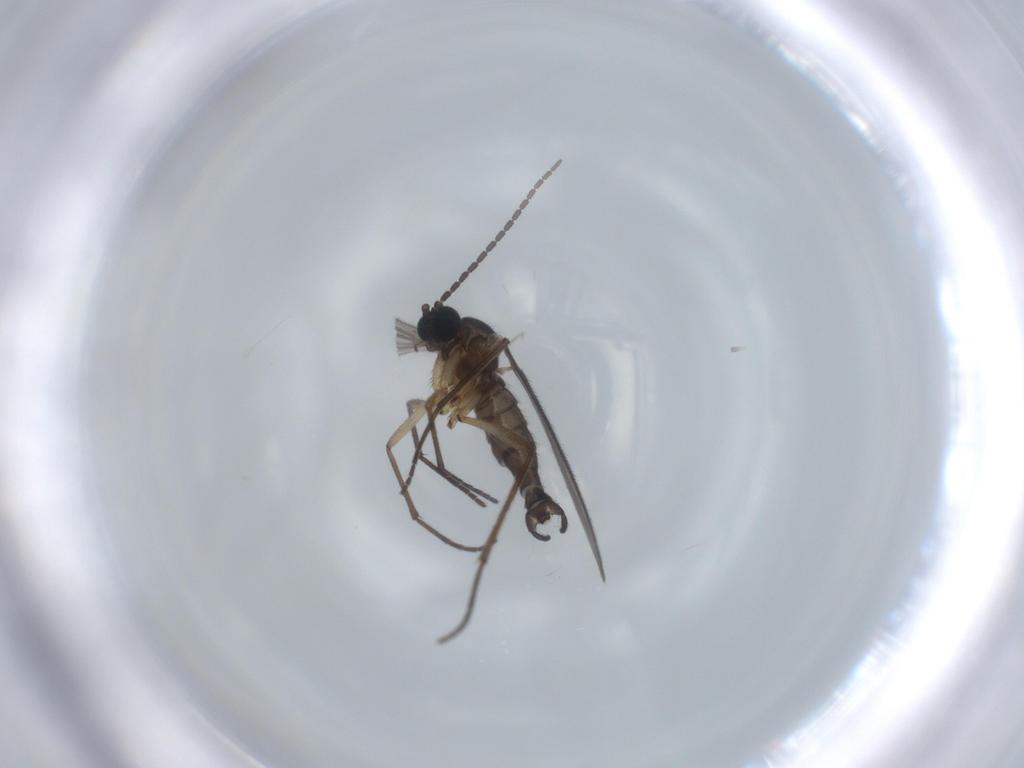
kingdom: Animalia
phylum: Arthropoda
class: Insecta
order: Diptera
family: Sciaridae
